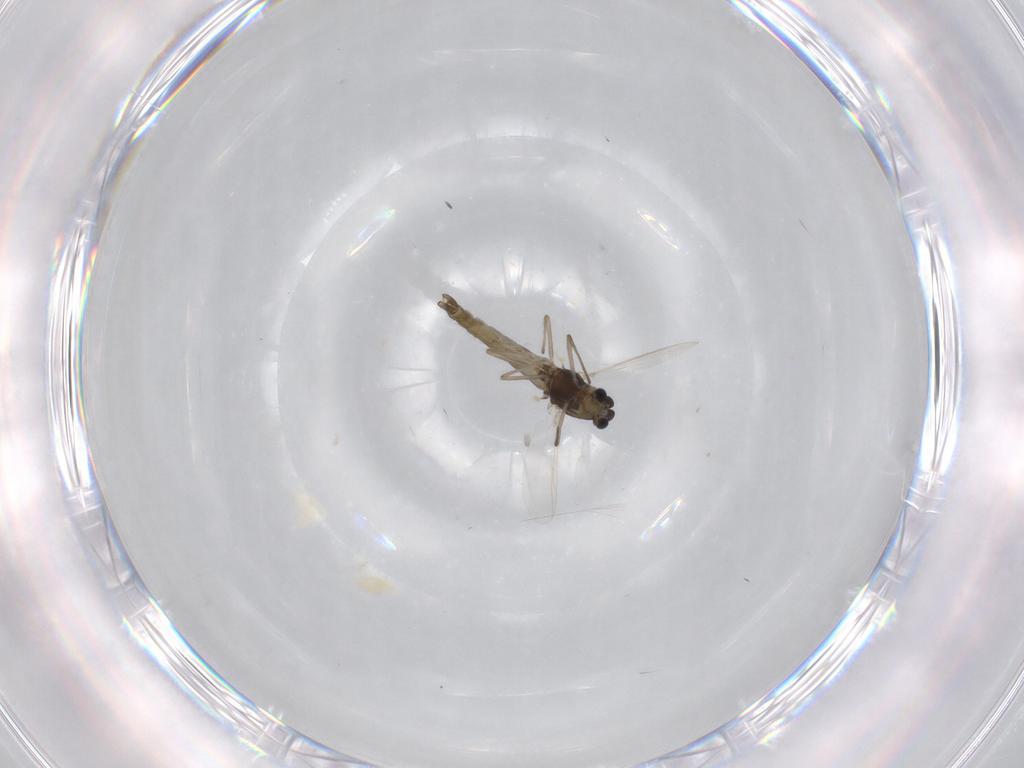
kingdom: Animalia
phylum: Arthropoda
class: Insecta
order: Diptera
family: Chironomidae
